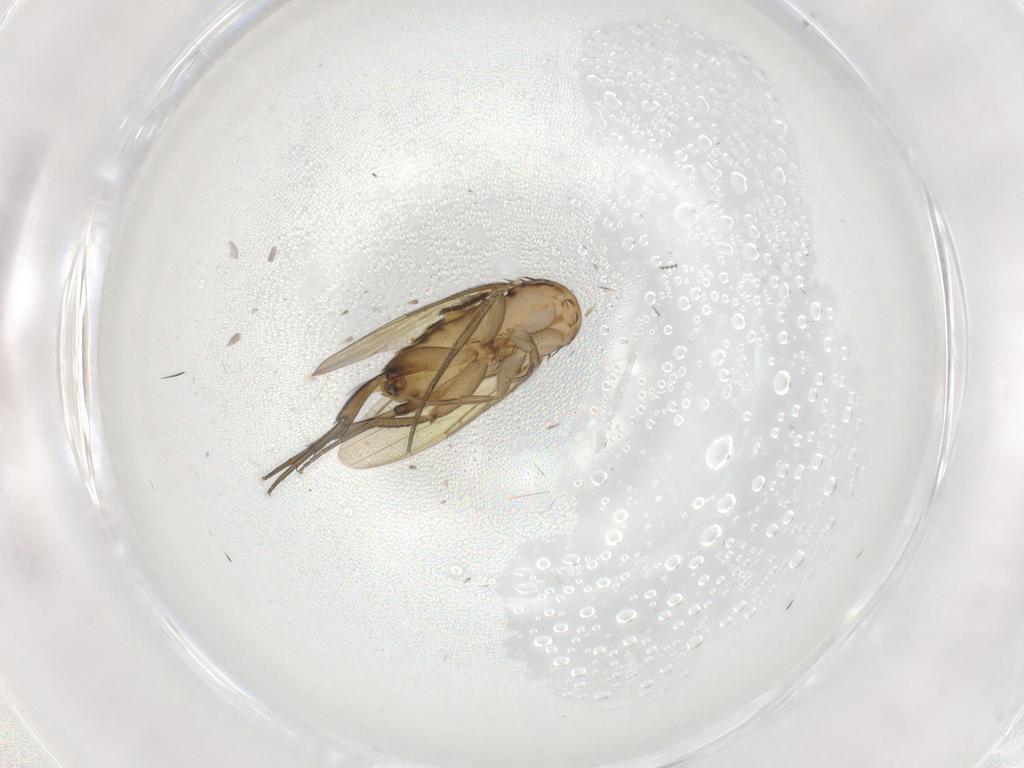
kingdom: Animalia
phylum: Arthropoda
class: Insecta
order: Diptera
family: Phoridae
